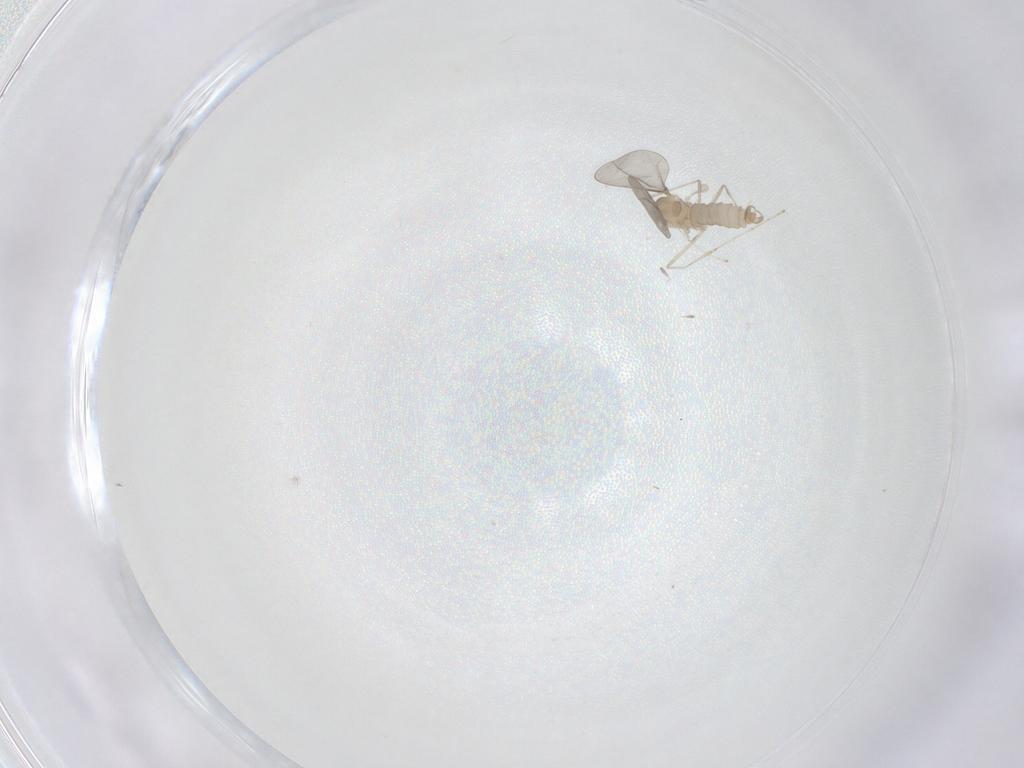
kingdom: Animalia
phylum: Arthropoda
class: Insecta
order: Diptera
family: Cecidomyiidae
